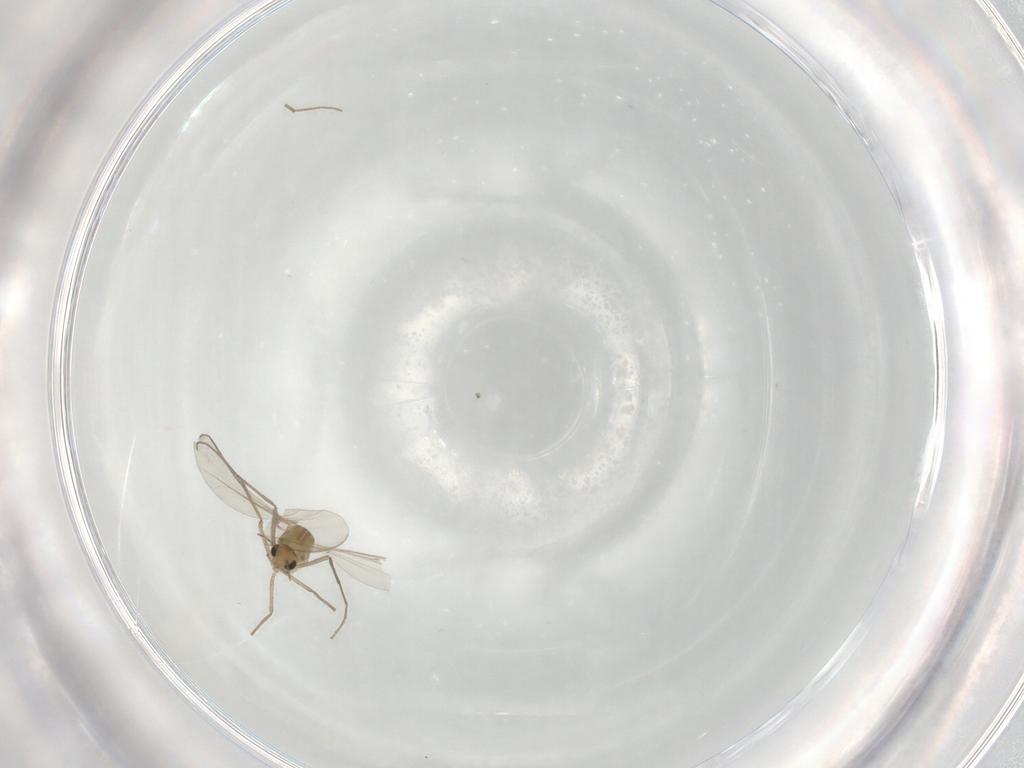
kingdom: Animalia
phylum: Arthropoda
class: Insecta
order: Diptera
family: Chironomidae
